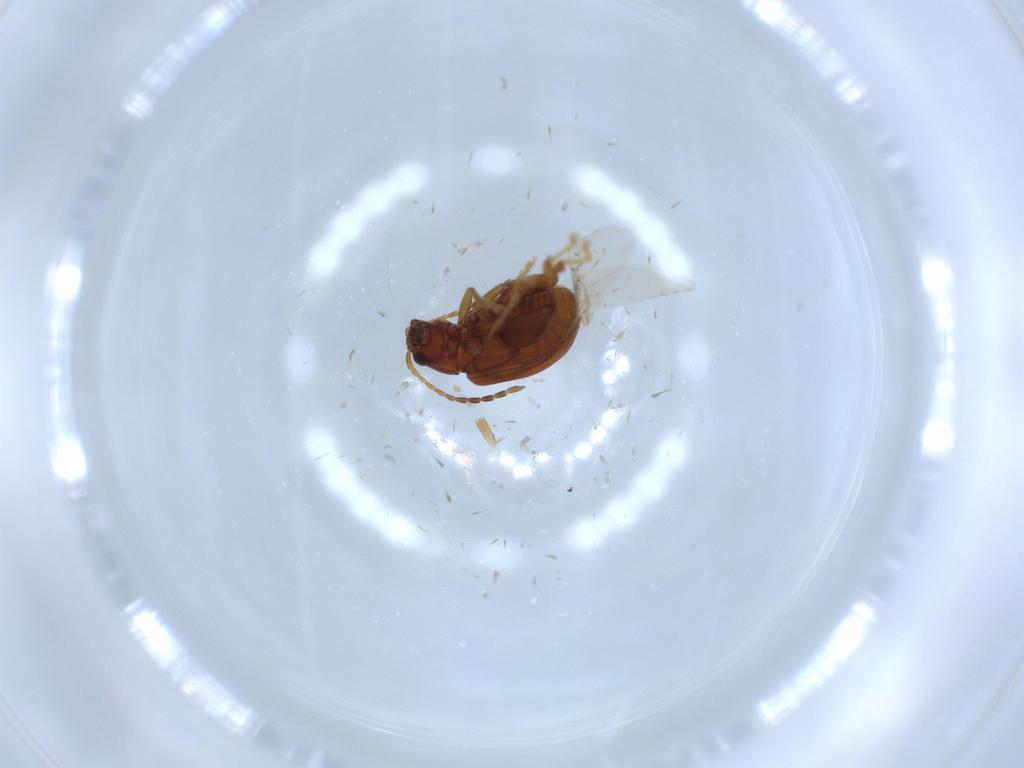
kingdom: Animalia
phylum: Arthropoda
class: Insecta
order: Coleoptera
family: Chrysomelidae
